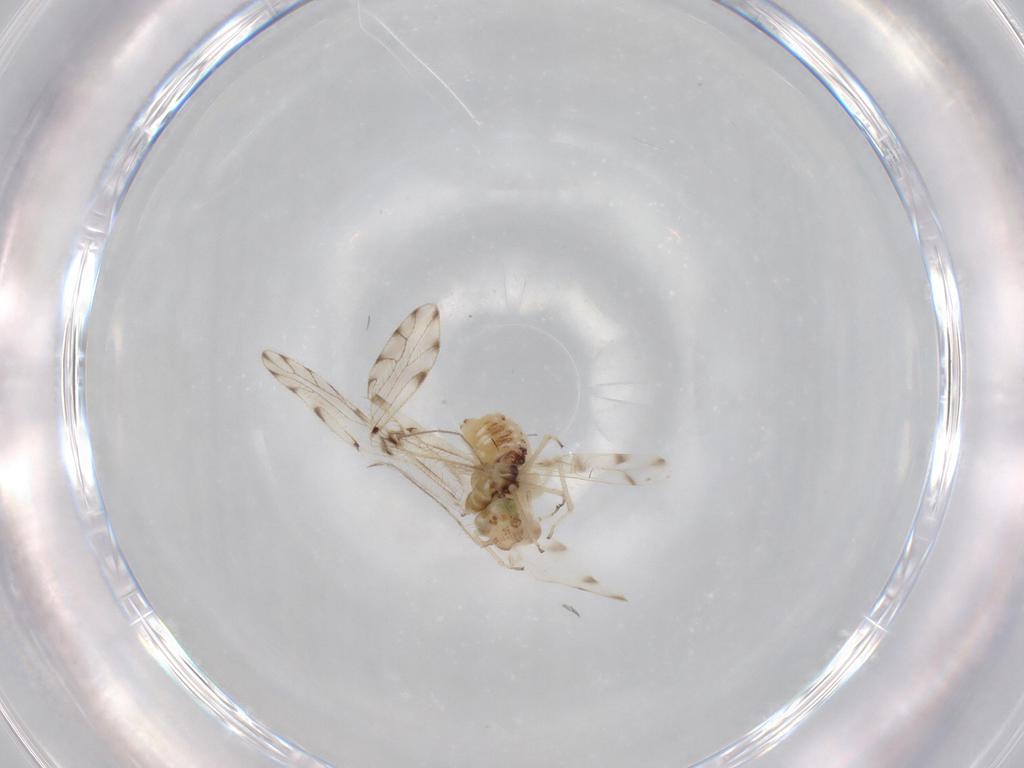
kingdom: Animalia
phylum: Arthropoda
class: Insecta
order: Psocodea
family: Ectopsocidae
